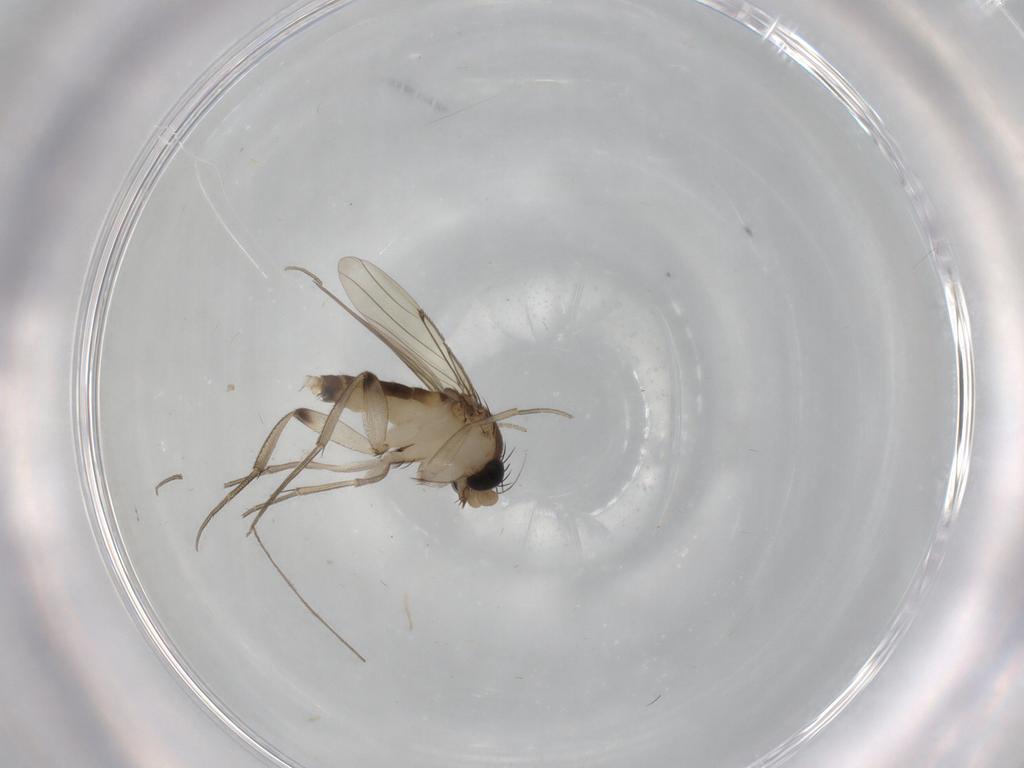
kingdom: Animalia
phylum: Arthropoda
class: Insecta
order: Diptera
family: Chironomidae
